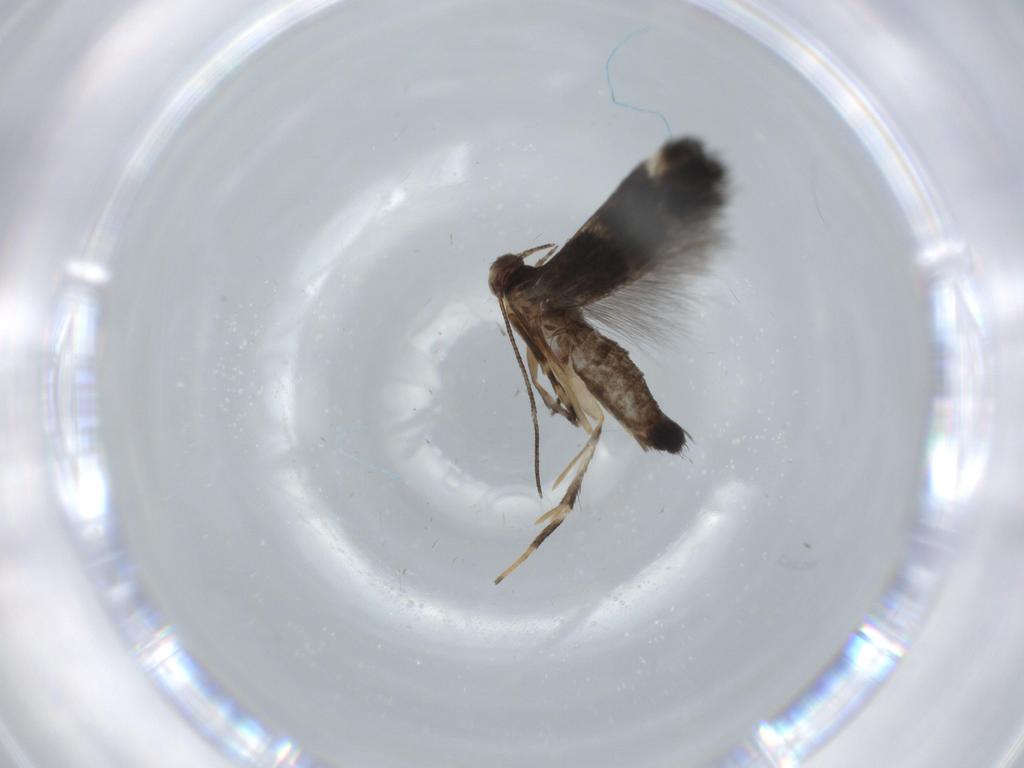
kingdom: Animalia
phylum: Arthropoda
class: Insecta
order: Lepidoptera
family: Cosmopterigidae
